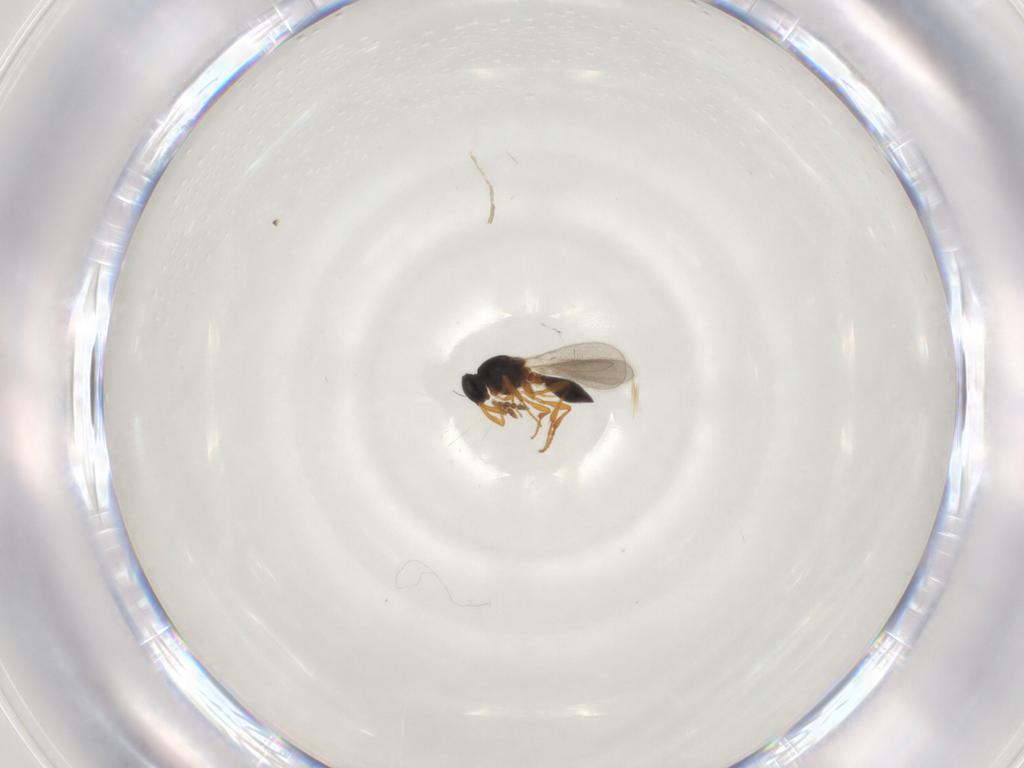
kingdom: Animalia
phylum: Arthropoda
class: Insecta
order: Hymenoptera
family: Platygastridae
